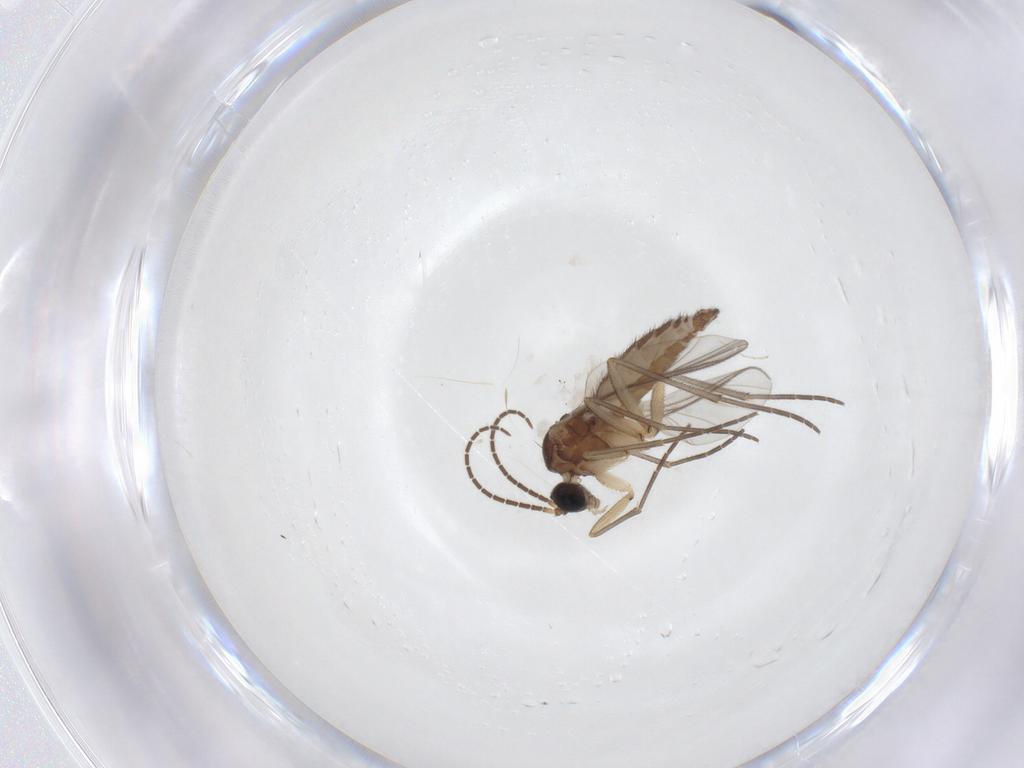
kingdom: Animalia
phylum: Arthropoda
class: Insecta
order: Diptera
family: Sciaridae
